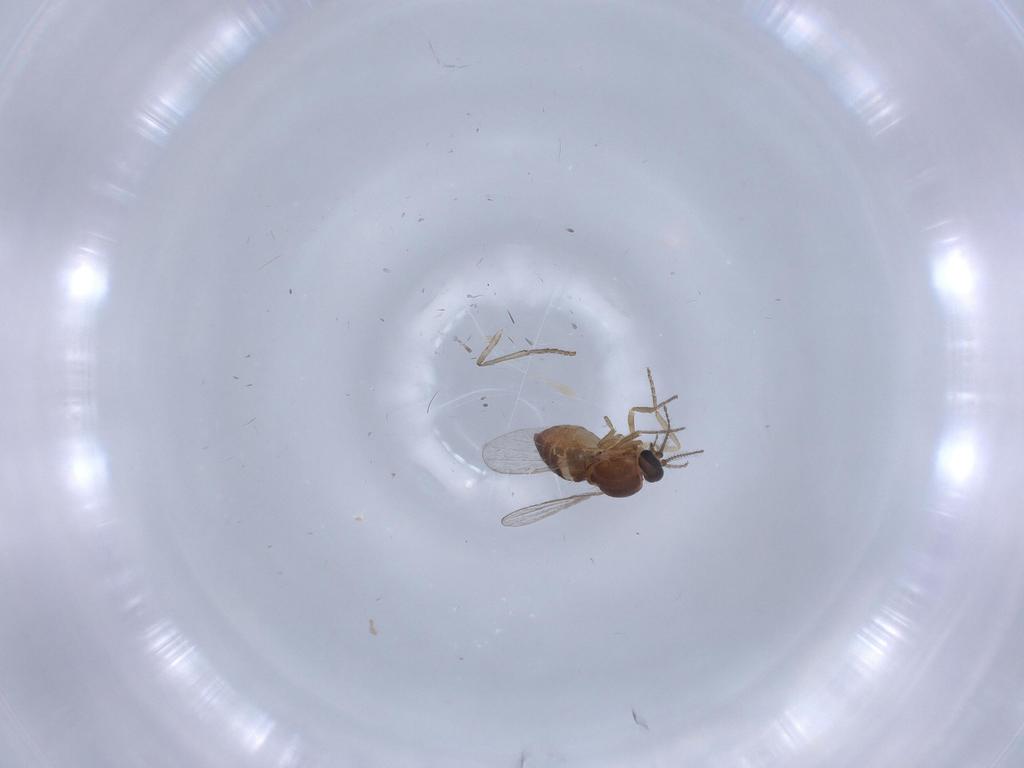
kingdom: Animalia
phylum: Arthropoda
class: Insecta
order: Diptera
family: Ceratopogonidae
